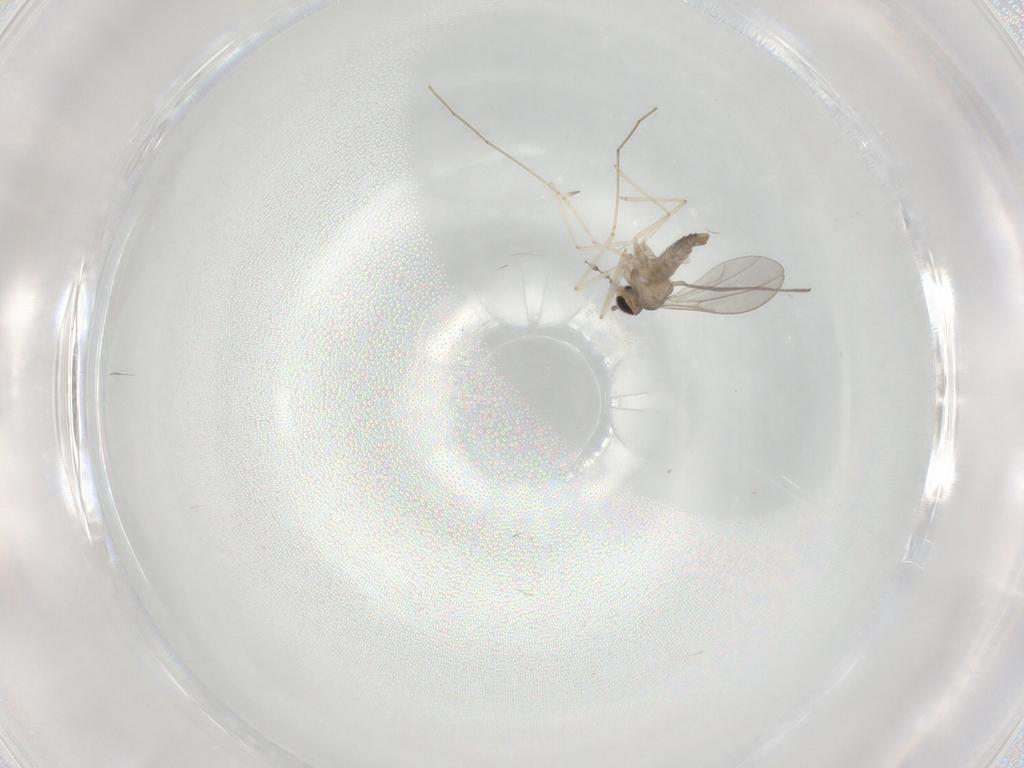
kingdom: Animalia
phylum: Arthropoda
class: Insecta
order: Diptera
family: Cecidomyiidae
